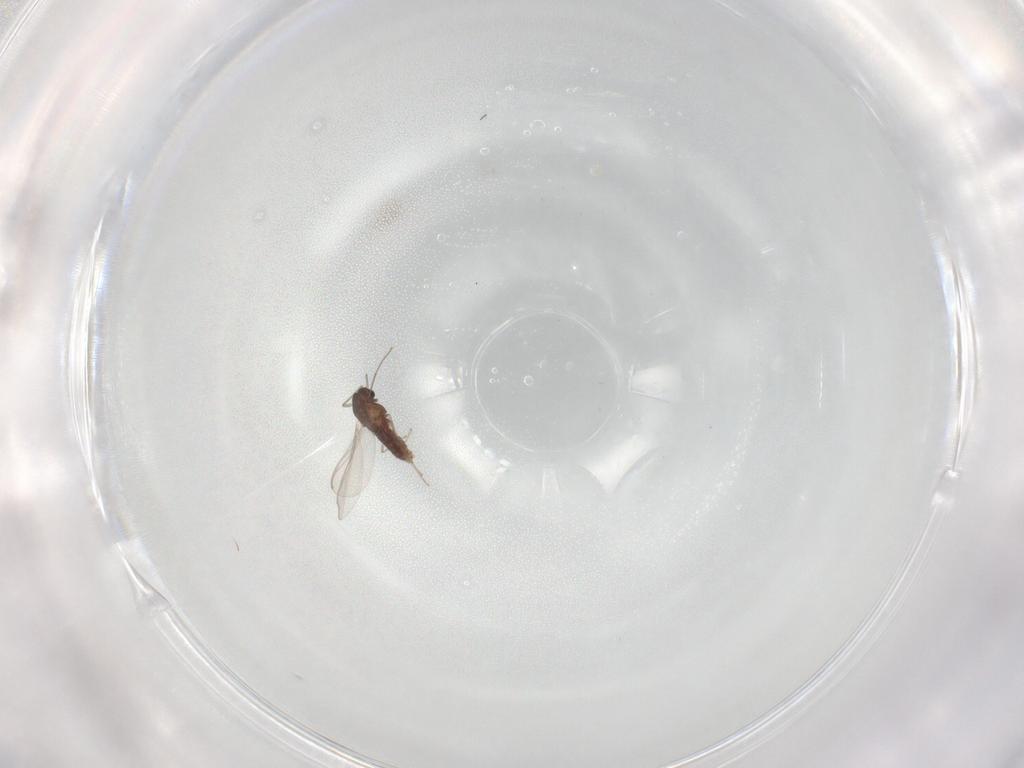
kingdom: Animalia
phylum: Arthropoda
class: Insecta
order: Diptera
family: Chironomidae
